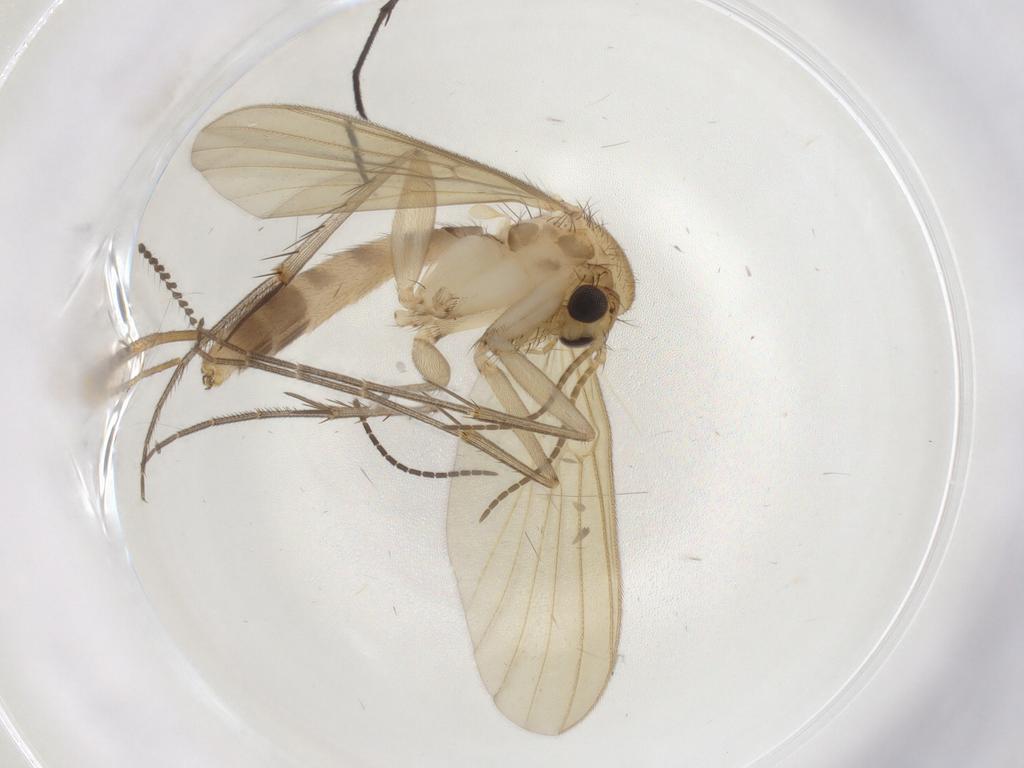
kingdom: Animalia
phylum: Arthropoda
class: Insecta
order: Diptera
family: Mycetophilidae
